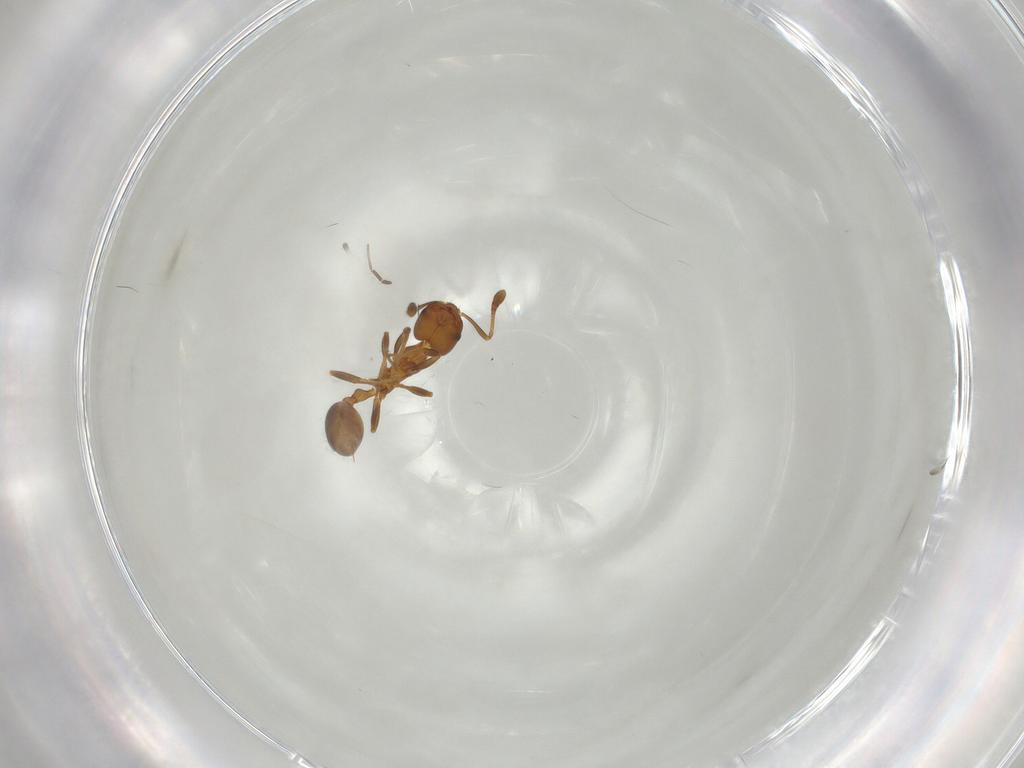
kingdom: Animalia
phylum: Arthropoda
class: Insecta
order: Hymenoptera
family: Formicidae
